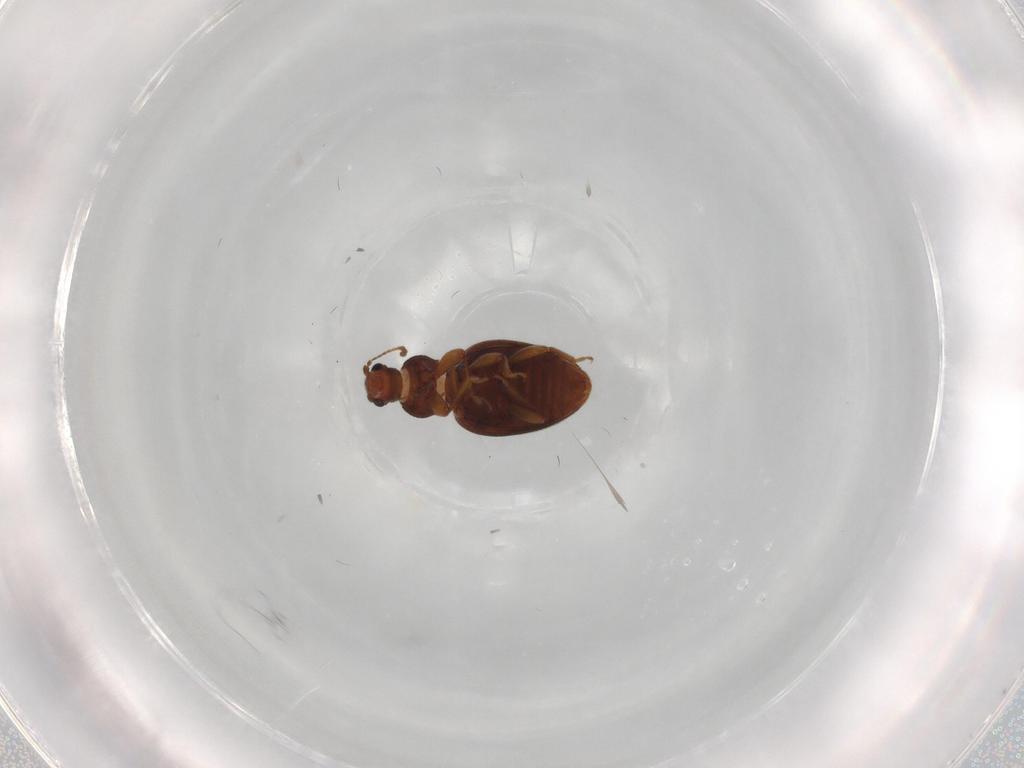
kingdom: Animalia
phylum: Arthropoda
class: Insecta
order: Coleoptera
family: Latridiidae
